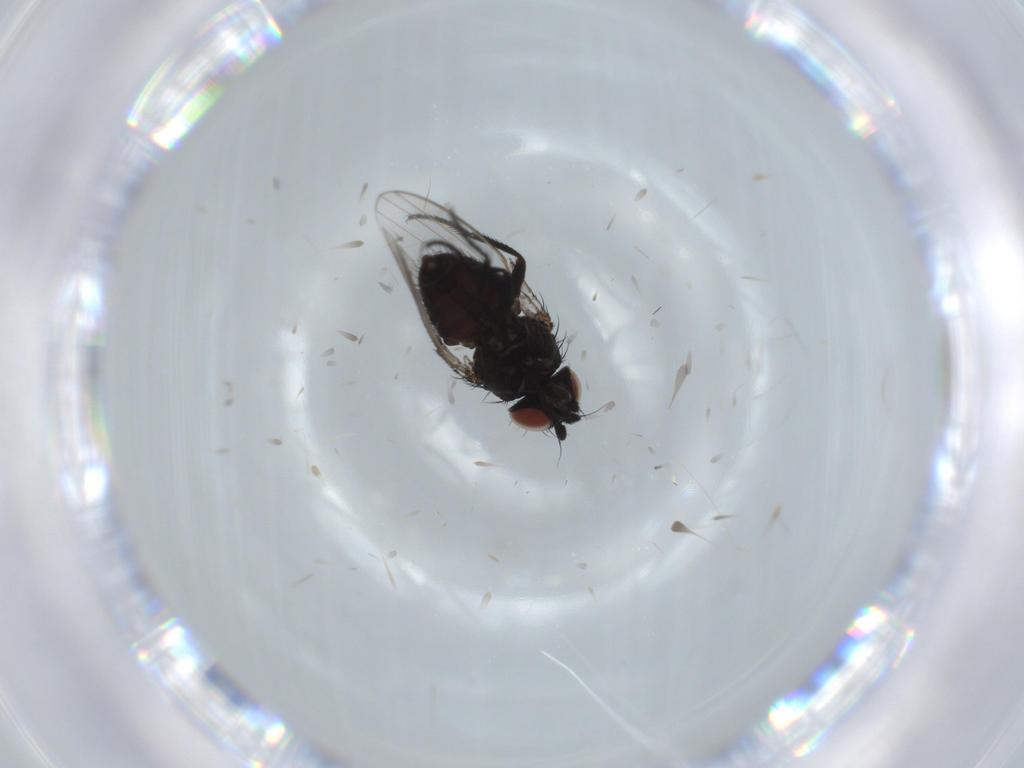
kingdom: Animalia
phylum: Arthropoda
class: Insecta
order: Diptera
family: Milichiidae
